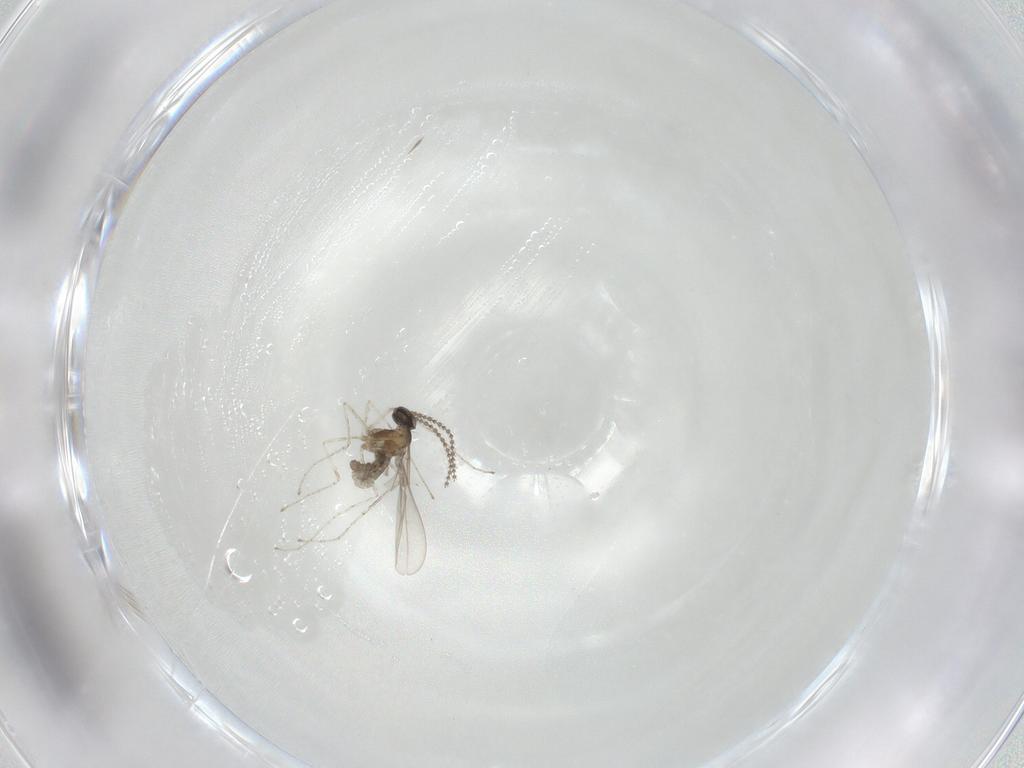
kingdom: Animalia
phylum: Arthropoda
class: Insecta
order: Diptera
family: Cecidomyiidae
